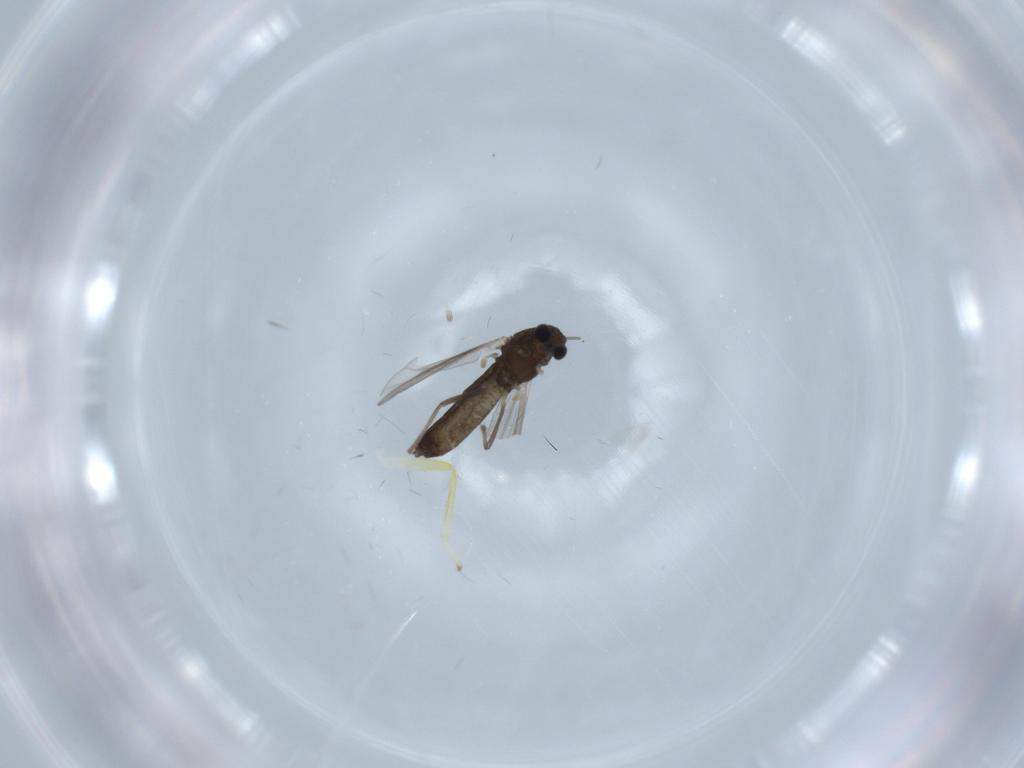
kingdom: Animalia
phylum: Arthropoda
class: Insecta
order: Diptera
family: Chironomidae
